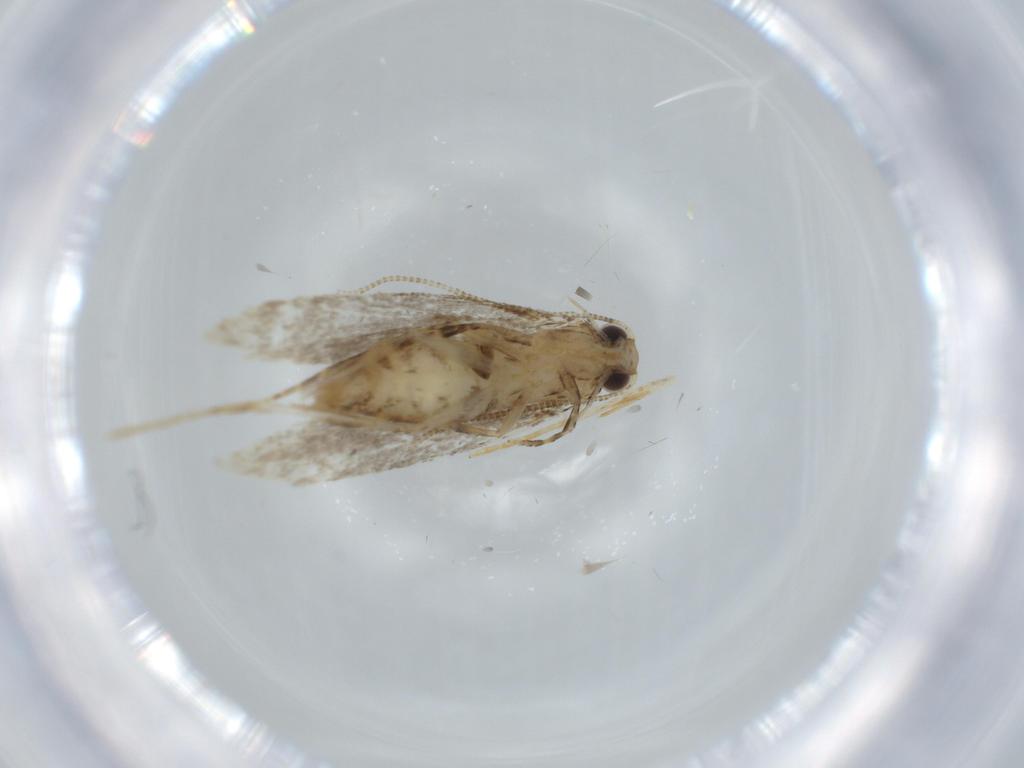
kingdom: Animalia
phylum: Arthropoda
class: Insecta
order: Lepidoptera
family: Tineidae
